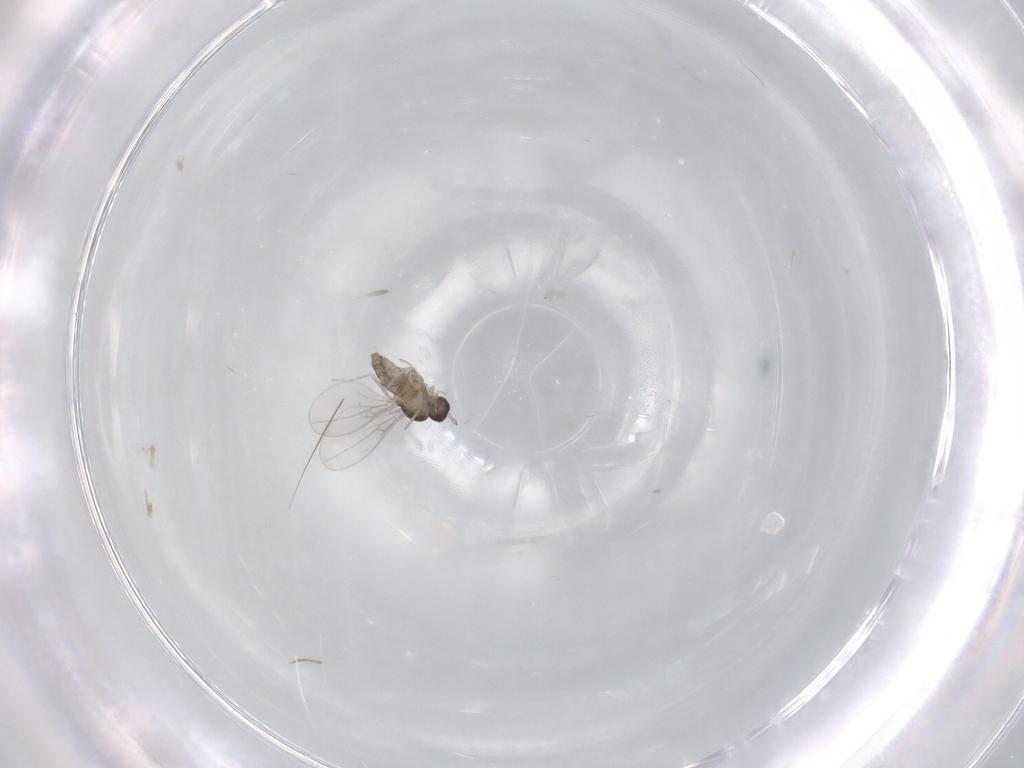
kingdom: Animalia
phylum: Arthropoda
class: Insecta
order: Diptera
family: Cecidomyiidae
